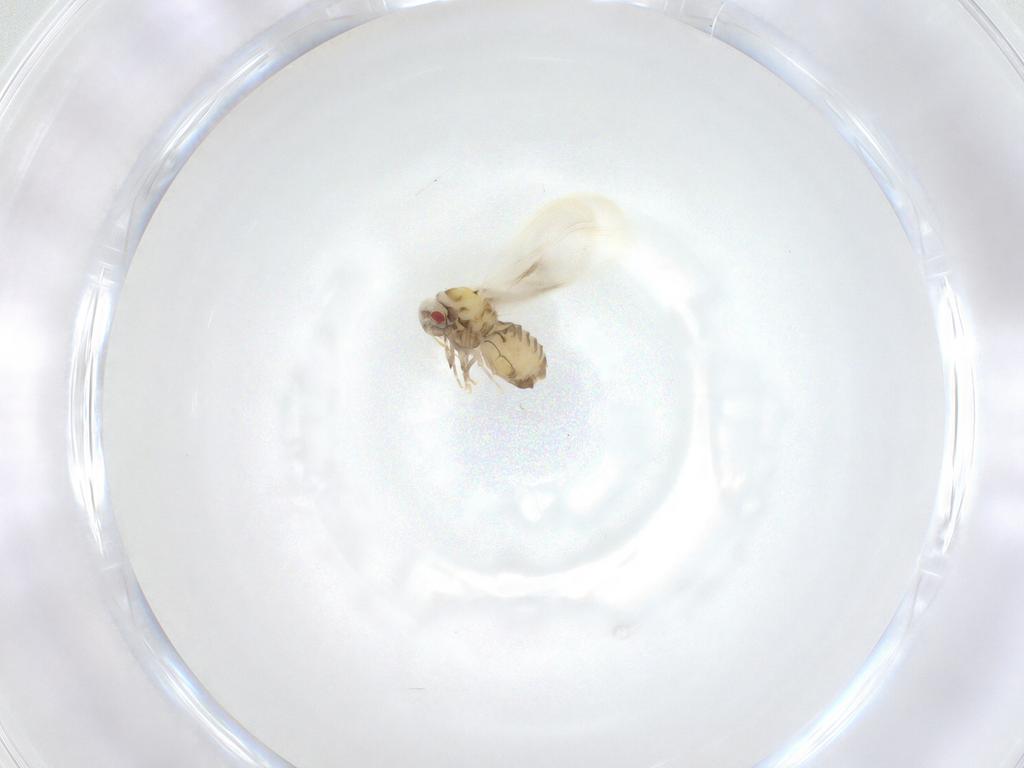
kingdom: Animalia
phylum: Arthropoda
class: Insecta
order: Hemiptera
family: Aleyrodidae
